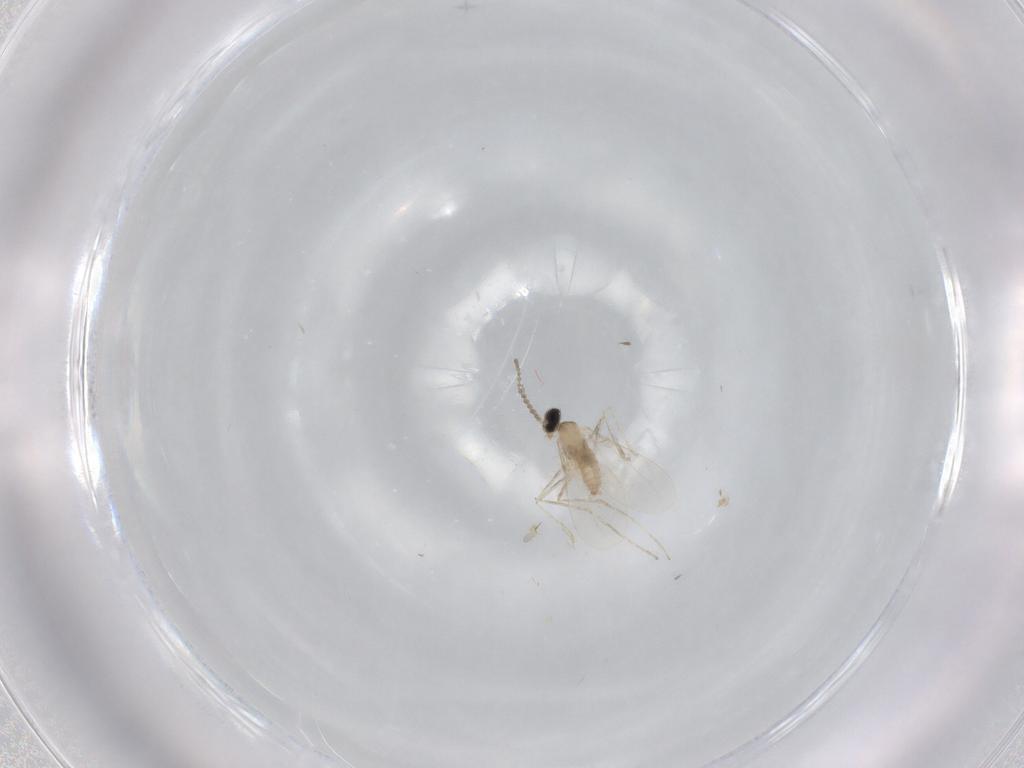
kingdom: Animalia
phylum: Arthropoda
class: Insecta
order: Diptera
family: Cecidomyiidae
